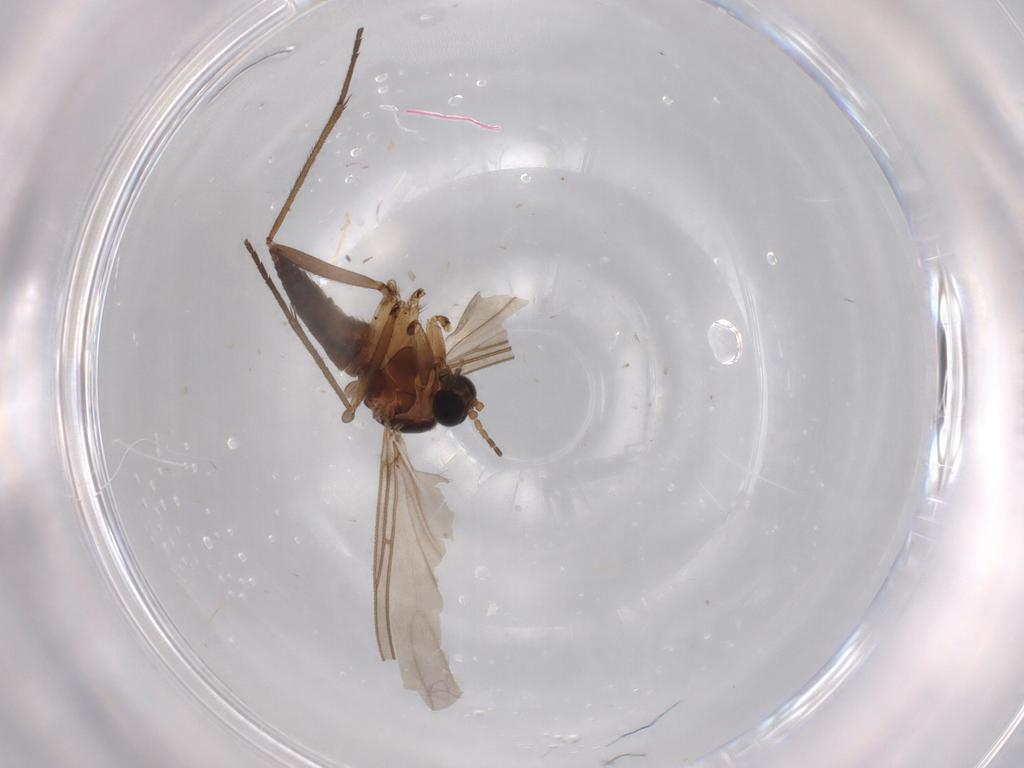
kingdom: Animalia
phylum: Arthropoda
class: Insecta
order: Diptera
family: Sciaridae
